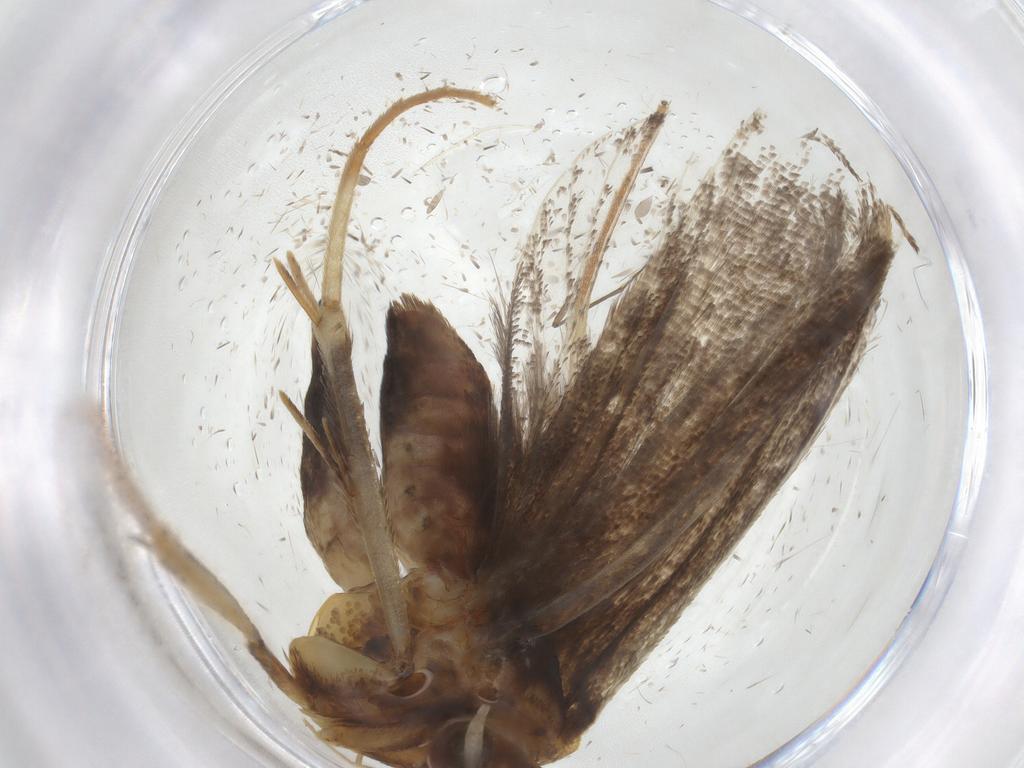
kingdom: Animalia
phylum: Arthropoda
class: Insecta
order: Lepidoptera
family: Lecithoceridae
